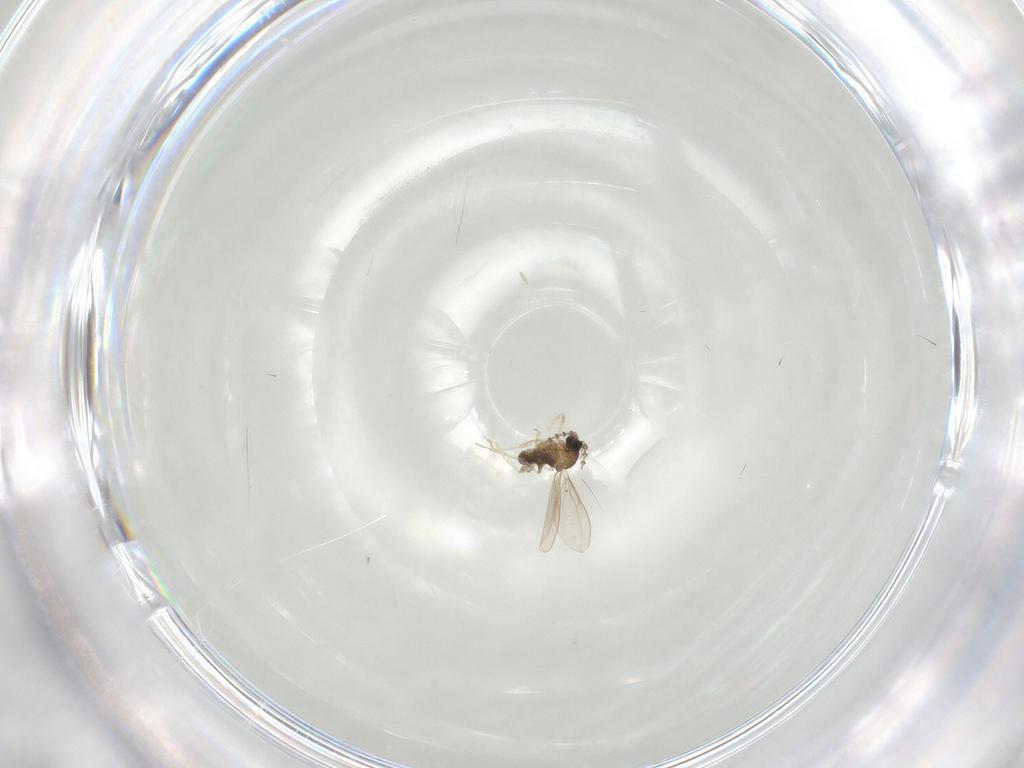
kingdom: Animalia
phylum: Arthropoda
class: Insecta
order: Diptera
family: Cecidomyiidae
